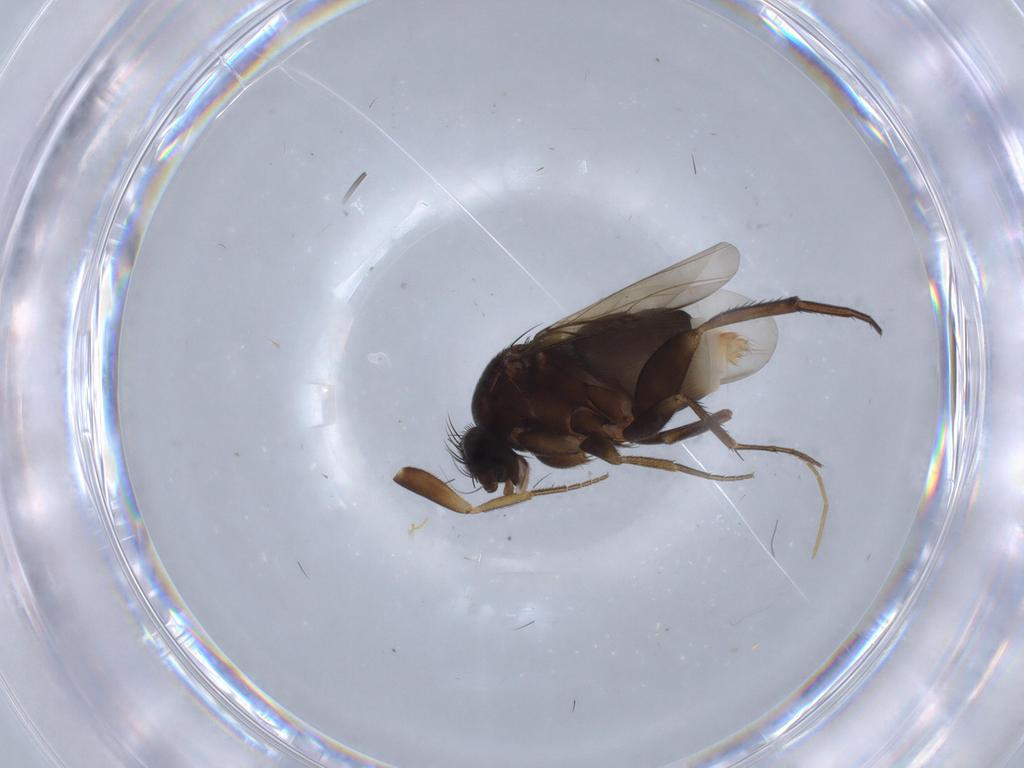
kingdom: Animalia
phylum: Arthropoda
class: Insecta
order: Diptera
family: Phoridae
